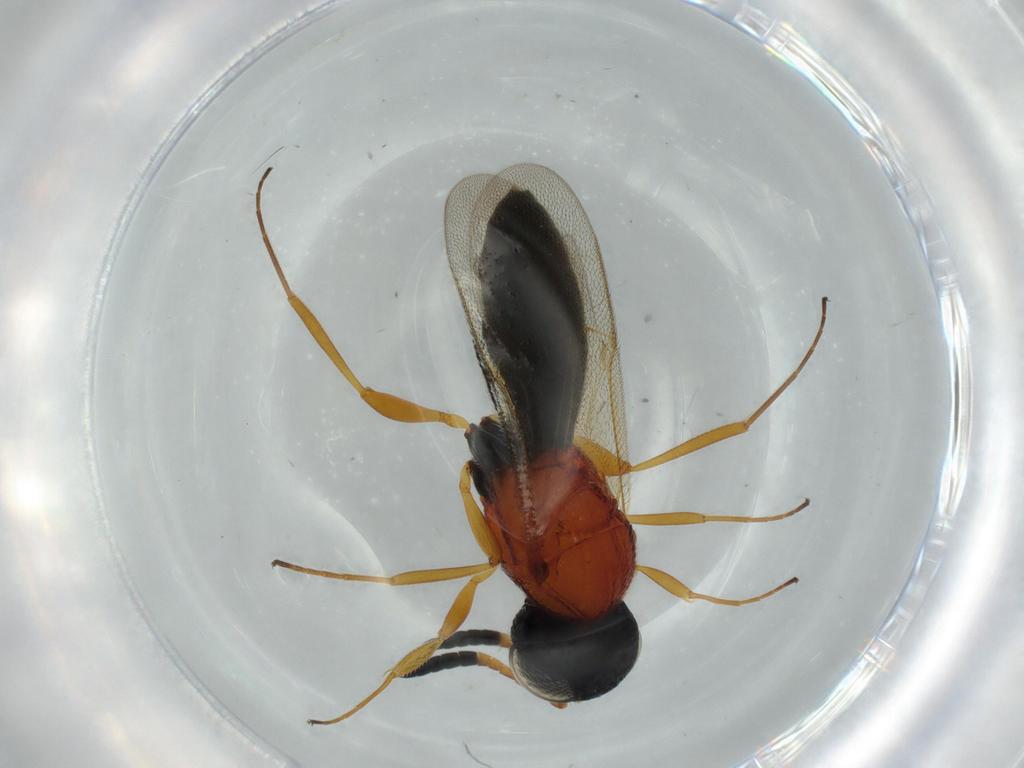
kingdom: Animalia
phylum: Arthropoda
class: Insecta
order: Hymenoptera
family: Scelionidae
